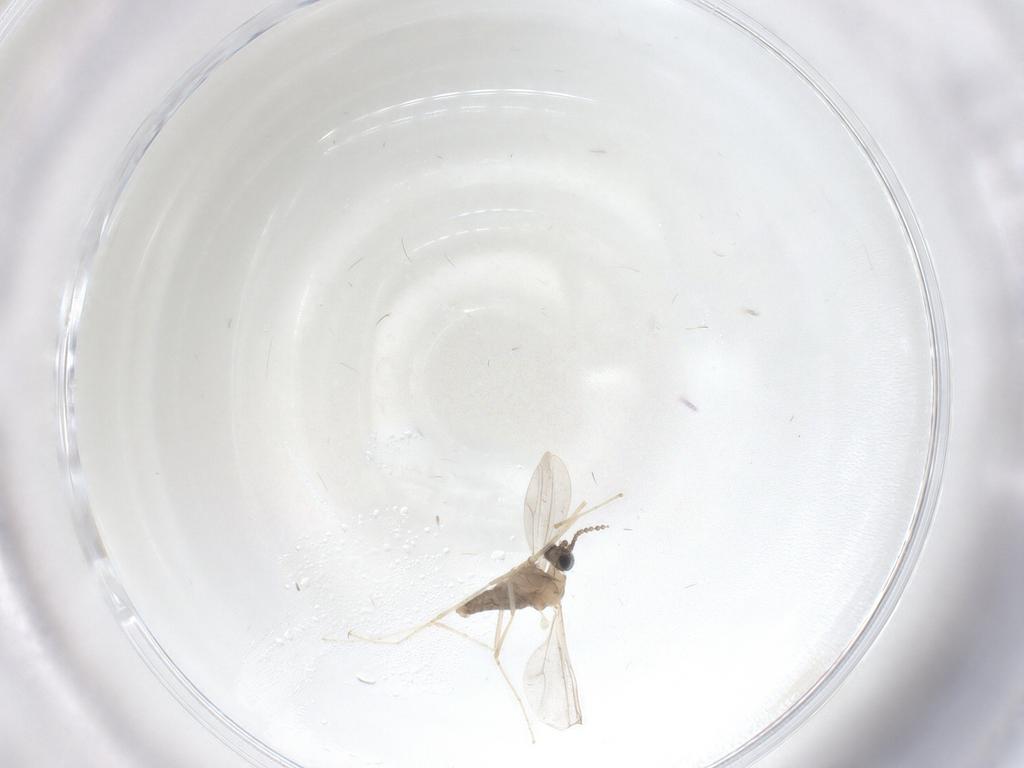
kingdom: Animalia
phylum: Arthropoda
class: Insecta
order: Diptera
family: Cecidomyiidae
